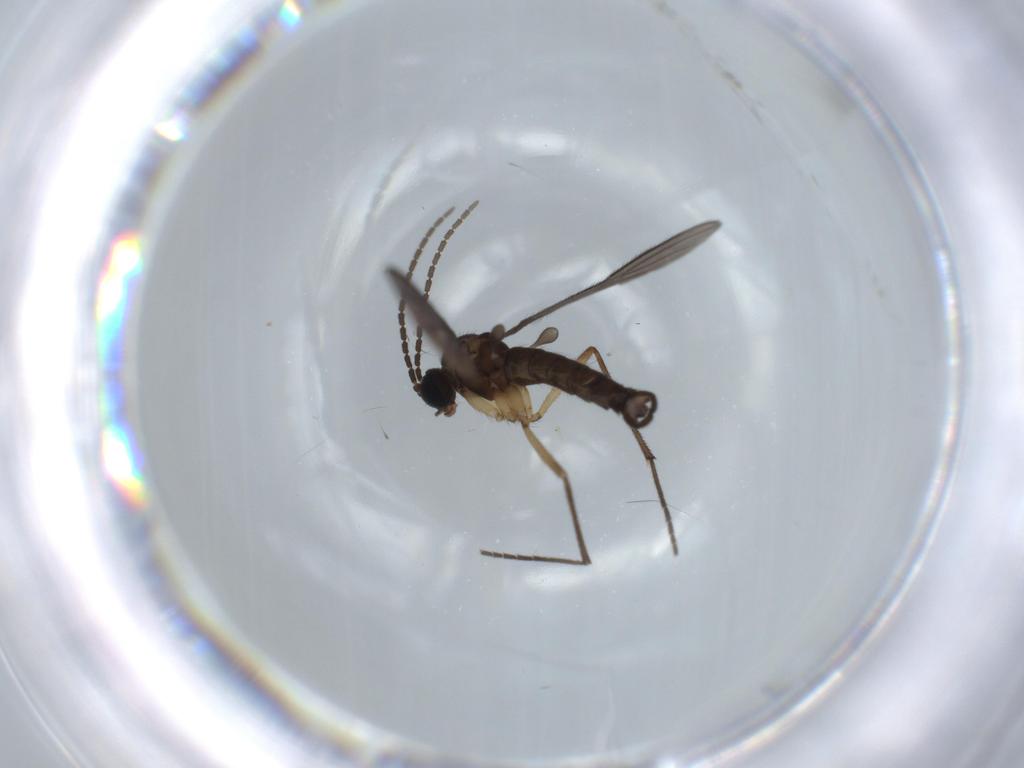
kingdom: Animalia
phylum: Arthropoda
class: Insecta
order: Diptera
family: Sciaridae
